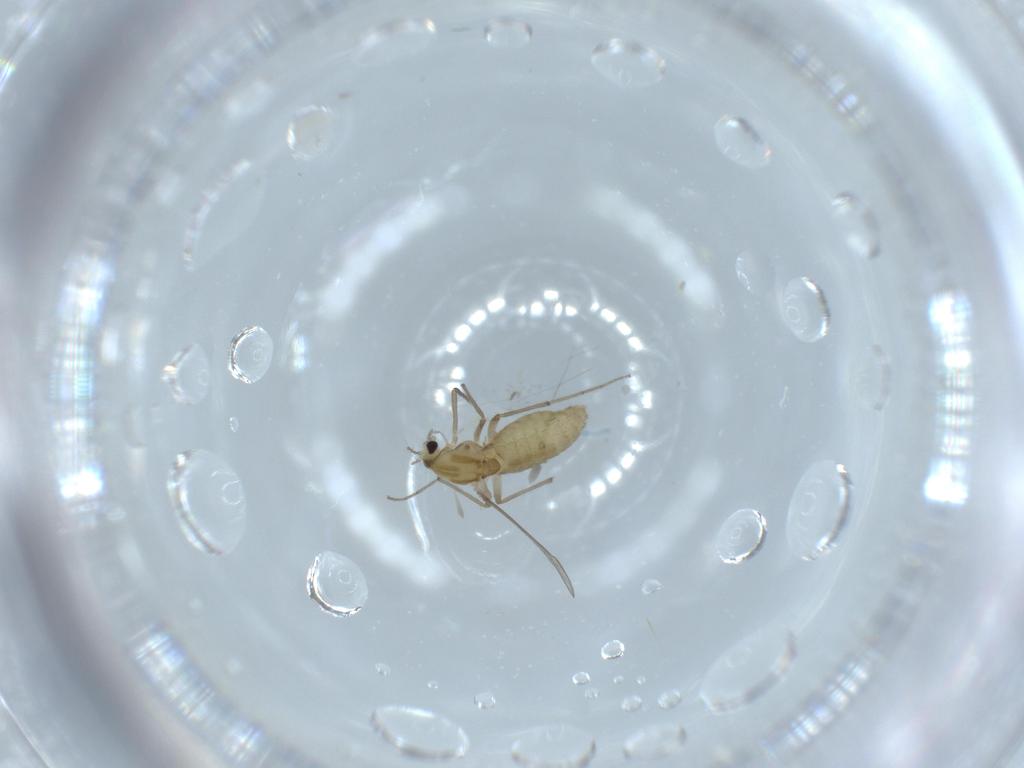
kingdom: Animalia
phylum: Arthropoda
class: Insecta
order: Diptera
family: Chironomidae
